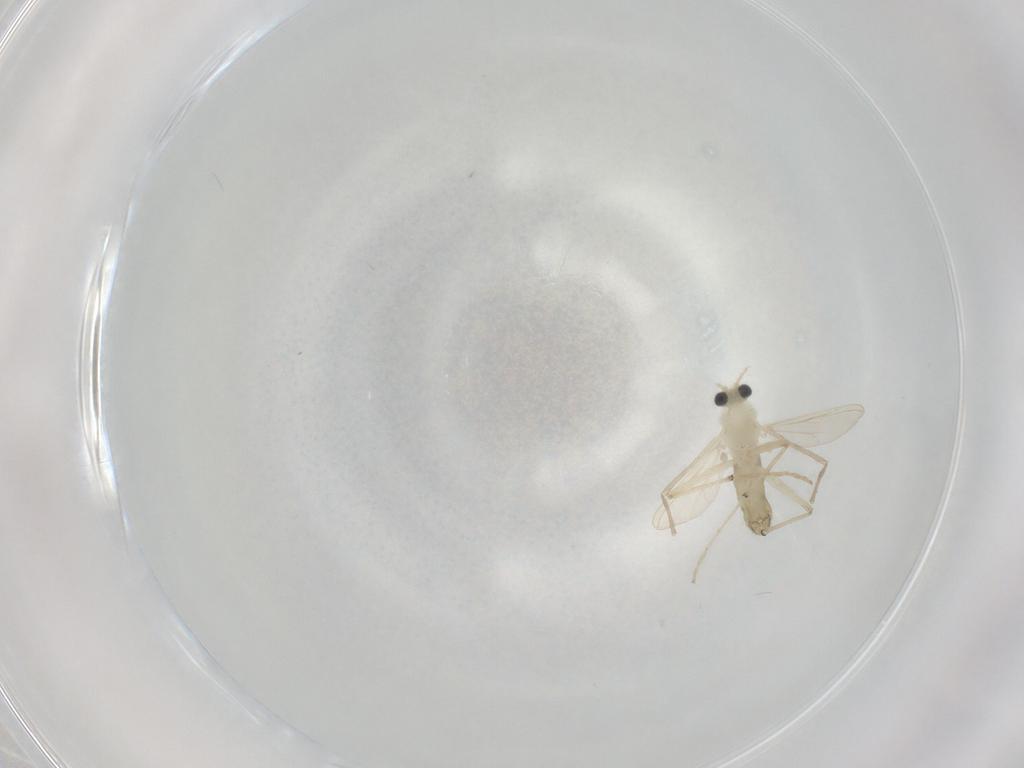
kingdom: Animalia
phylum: Arthropoda
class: Insecta
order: Diptera
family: Chironomidae
